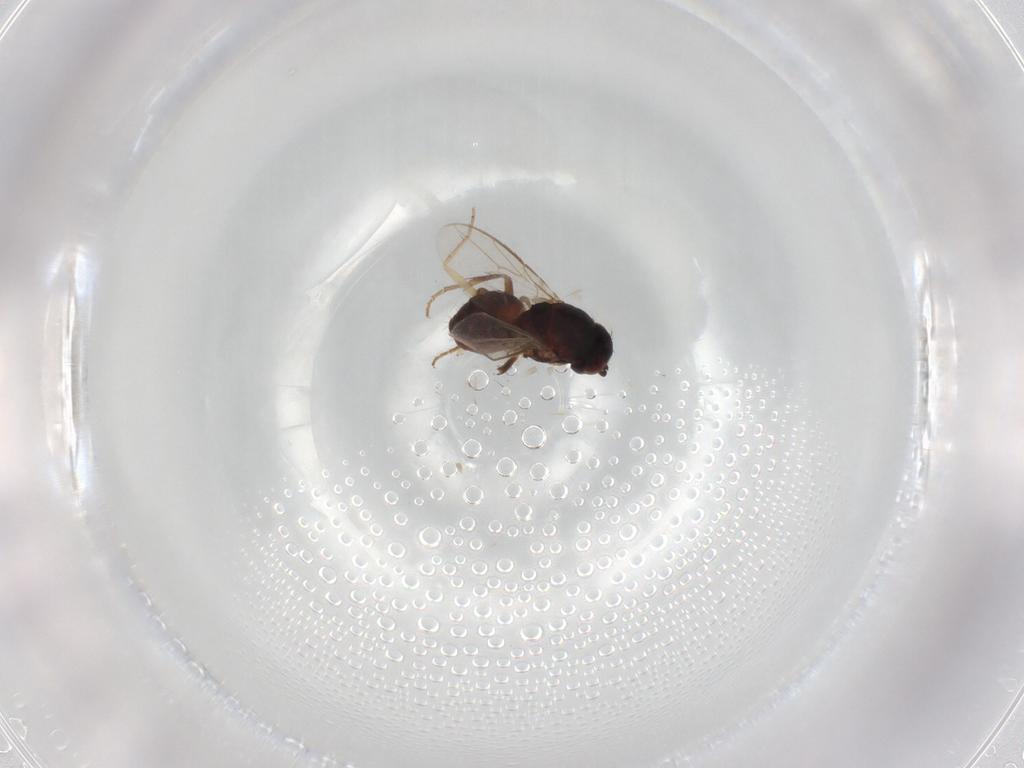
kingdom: Animalia
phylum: Arthropoda
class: Insecta
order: Diptera
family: Sphaeroceridae
